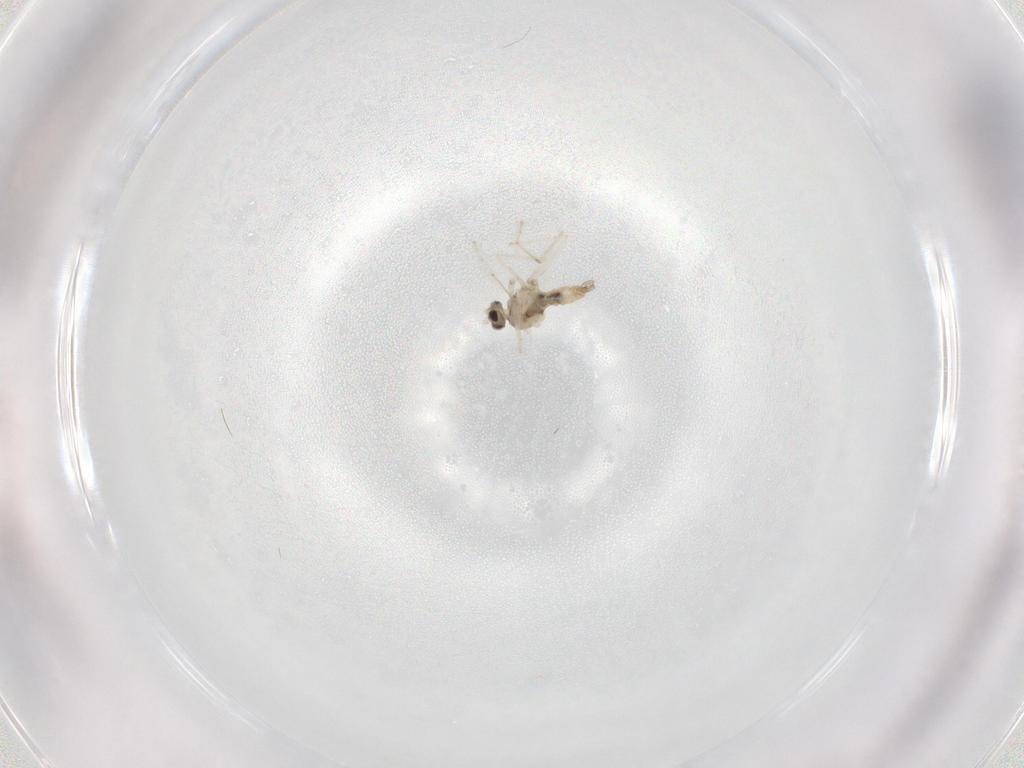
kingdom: Animalia
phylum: Arthropoda
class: Insecta
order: Diptera
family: Cecidomyiidae
